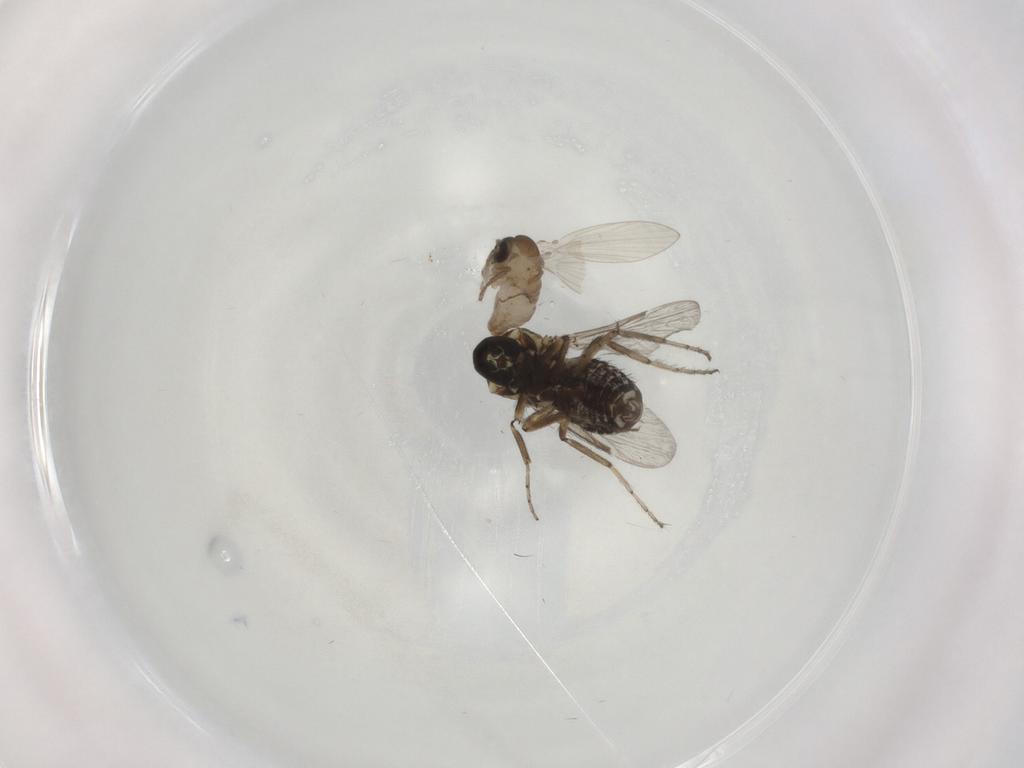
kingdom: Animalia
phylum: Arthropoda
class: Insecta
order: Diptera
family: Ceratopogonidae
